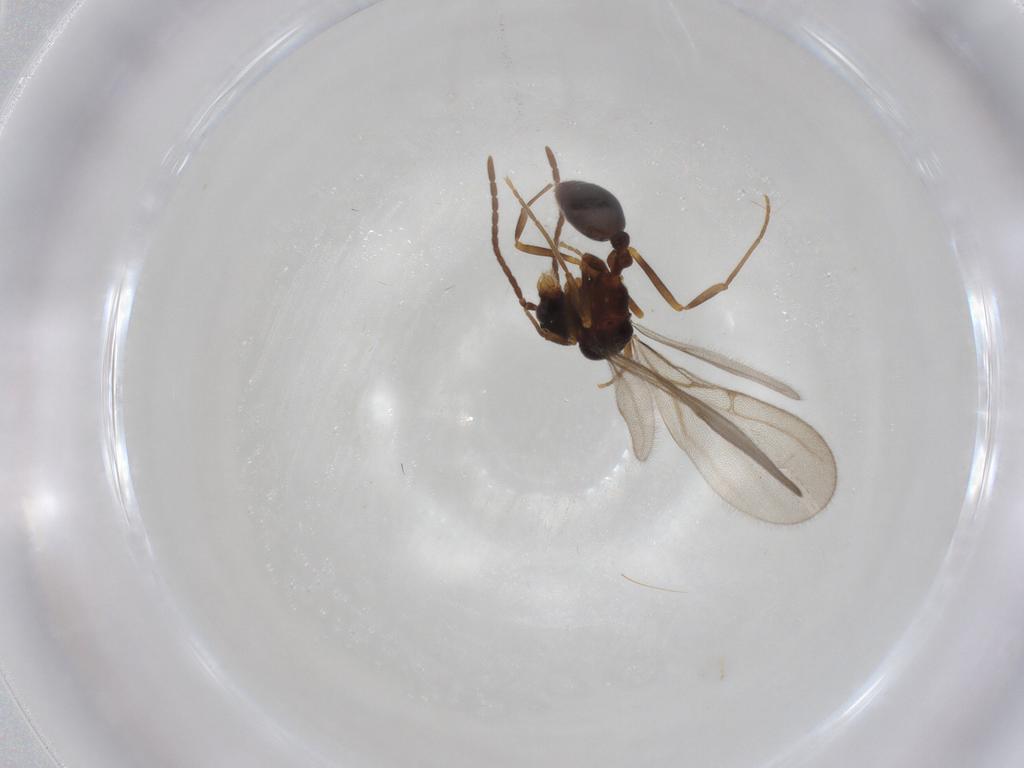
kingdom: Animalia
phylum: Arthropoda
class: Insecta
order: Hymenoptera
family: Formicidae
